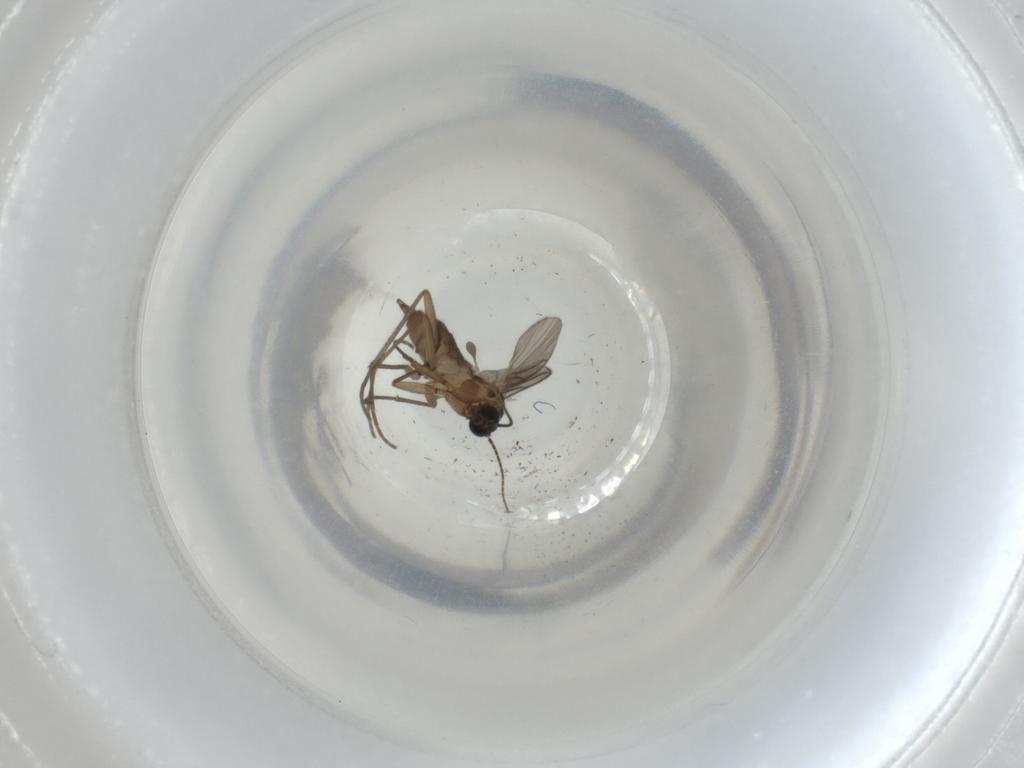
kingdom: Animalia
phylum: Arthropoda
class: Insecta
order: Diptera
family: Sciaridae
